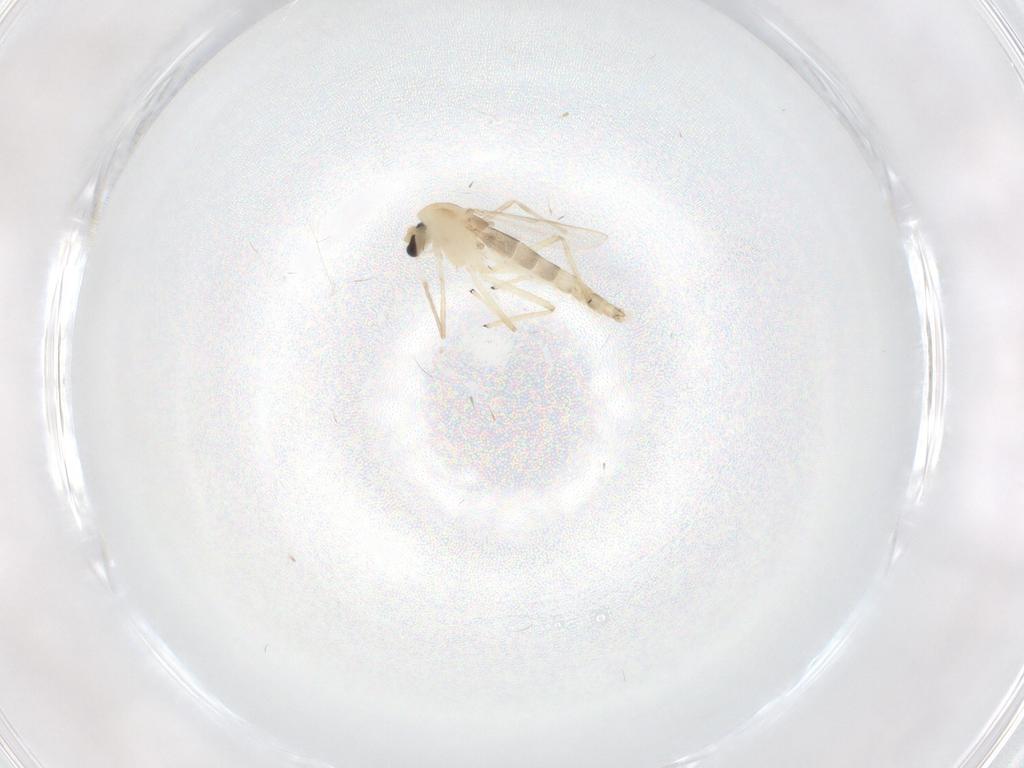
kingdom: Animalia
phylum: Arthropoda
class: Insecta
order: Diptera
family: Chironomidae
